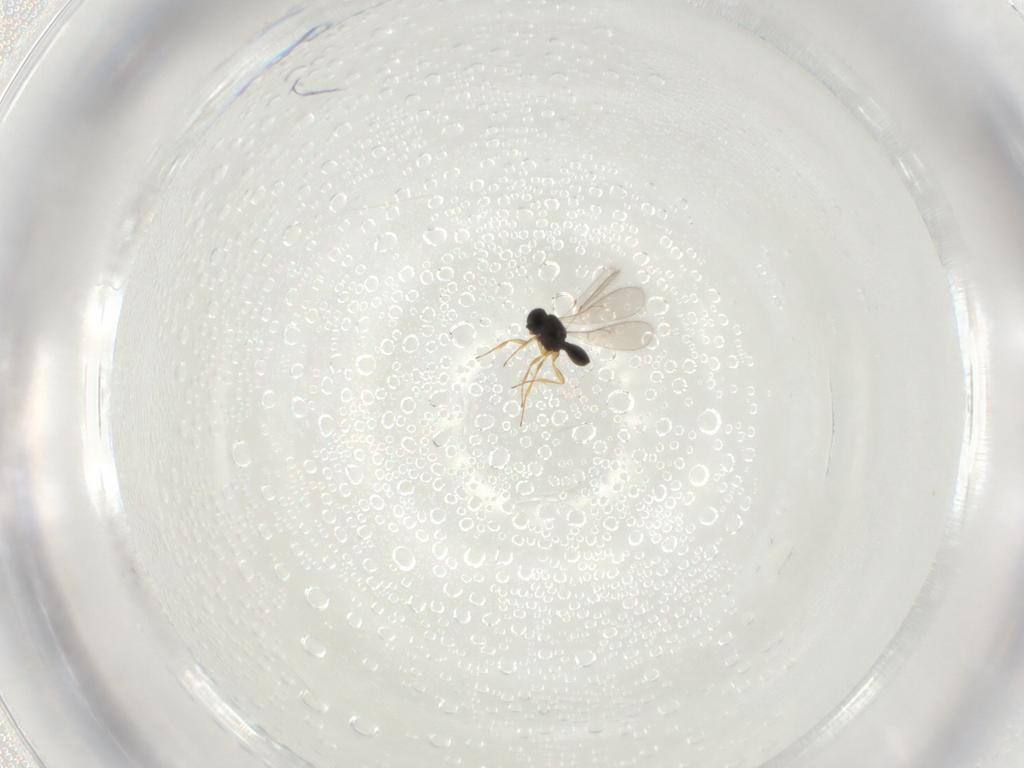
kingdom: Animalia
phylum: Arthropoda
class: Insecta
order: Hymenoptera
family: Scelionidae
